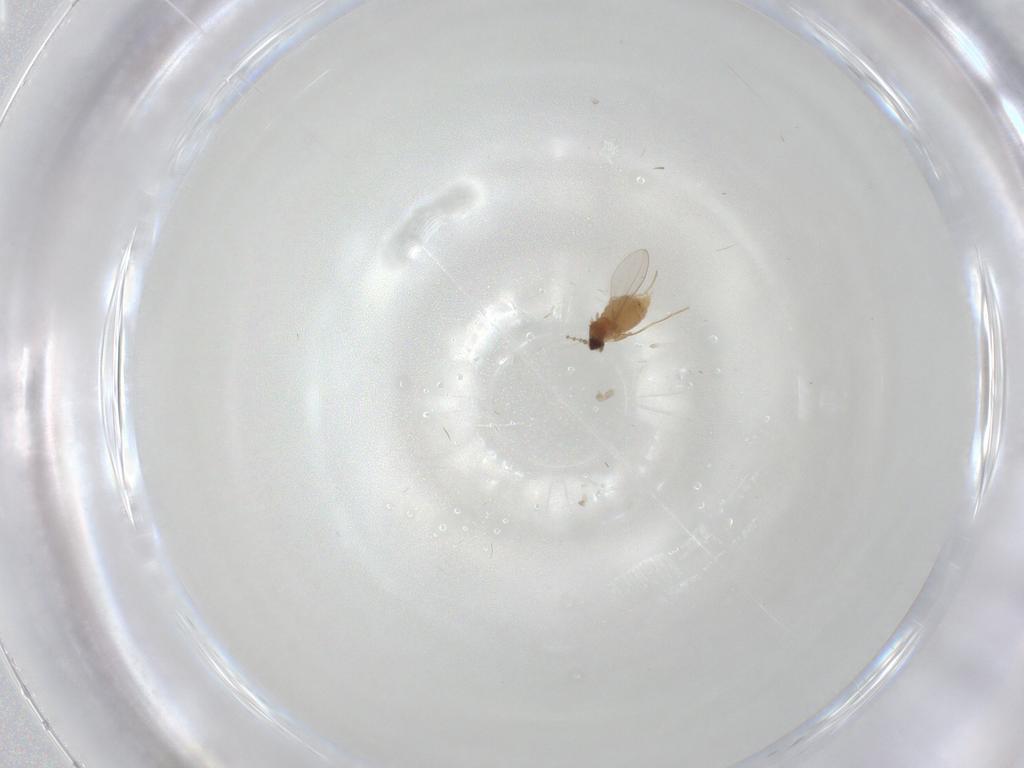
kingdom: Animalia
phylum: Arthropoda
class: Insecta
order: Diptera
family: Cecidomyiidae
